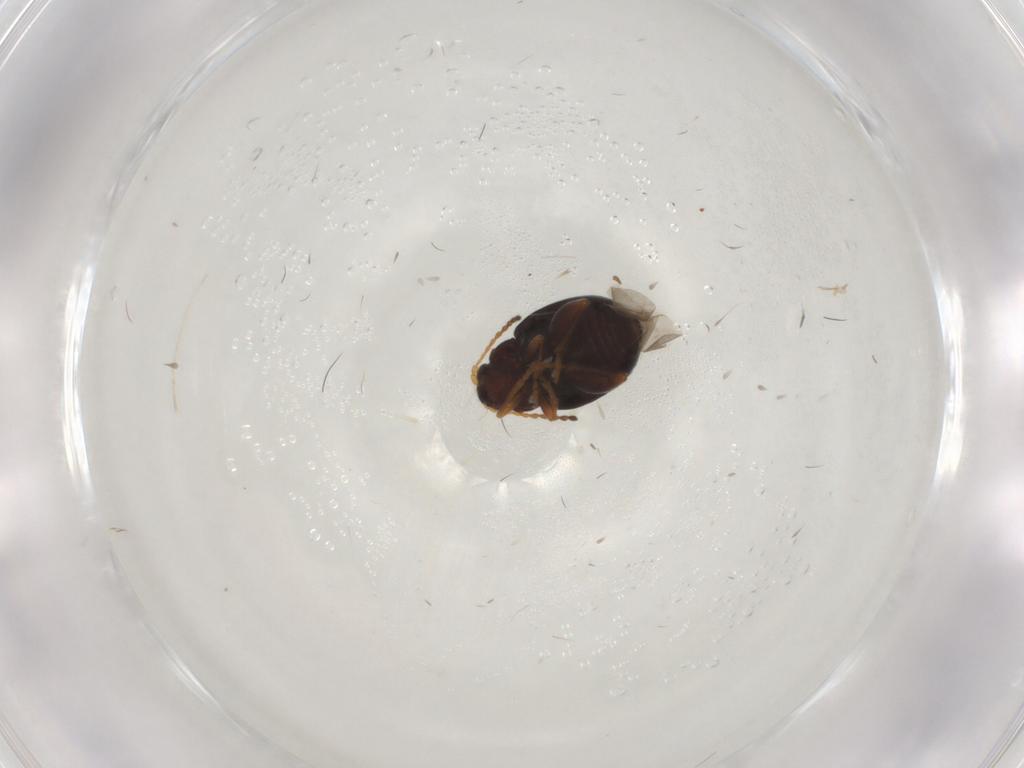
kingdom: Animalia
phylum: Arthropoda
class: Insecta
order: Coleoptera
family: Chrysomelidae
